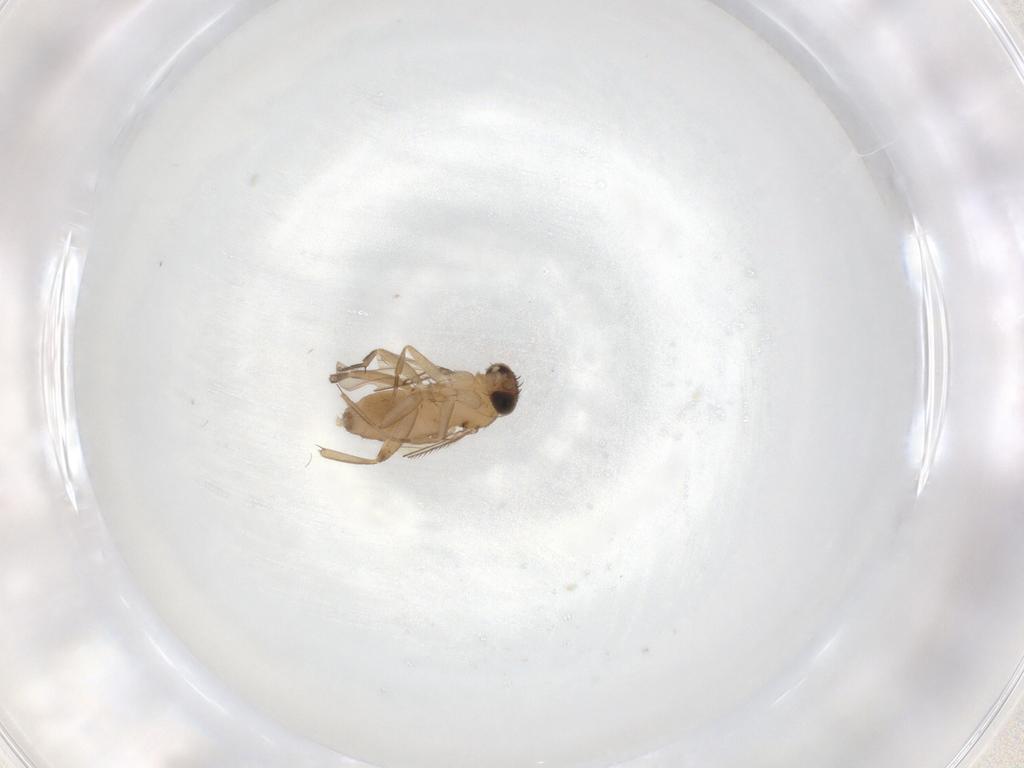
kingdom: Animalia
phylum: Arthropoda
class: Insecta
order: Diptera
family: Phoridae
